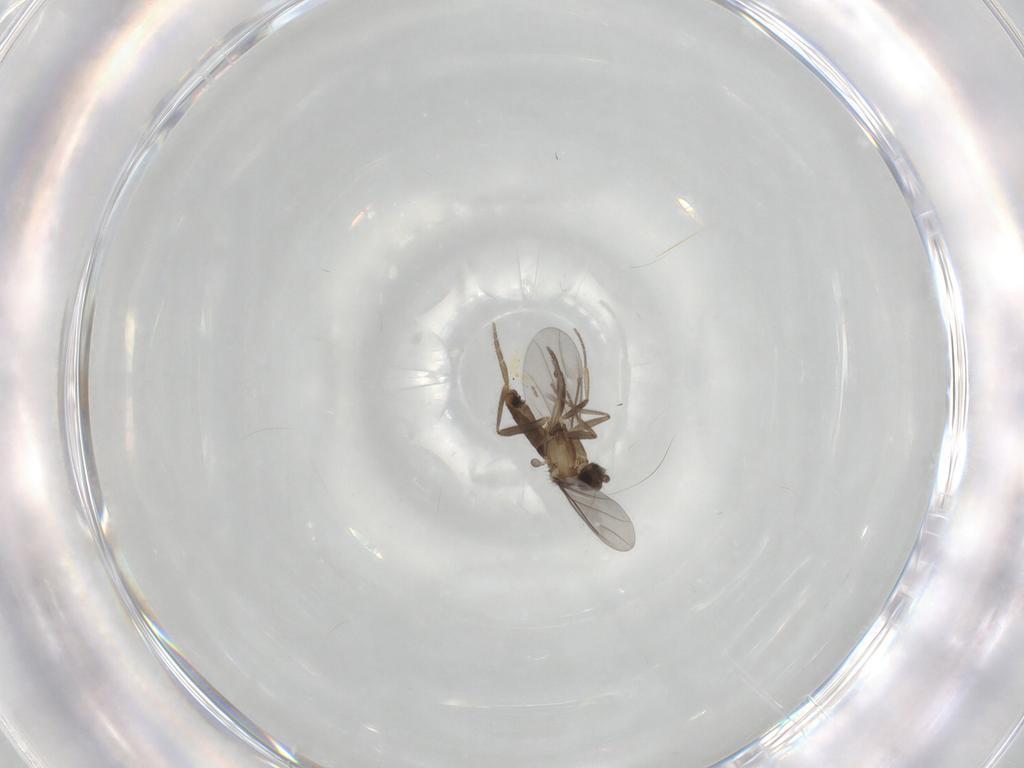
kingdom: Animalia
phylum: Arthropoda
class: Insecta
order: Diptera
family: Phoridae
